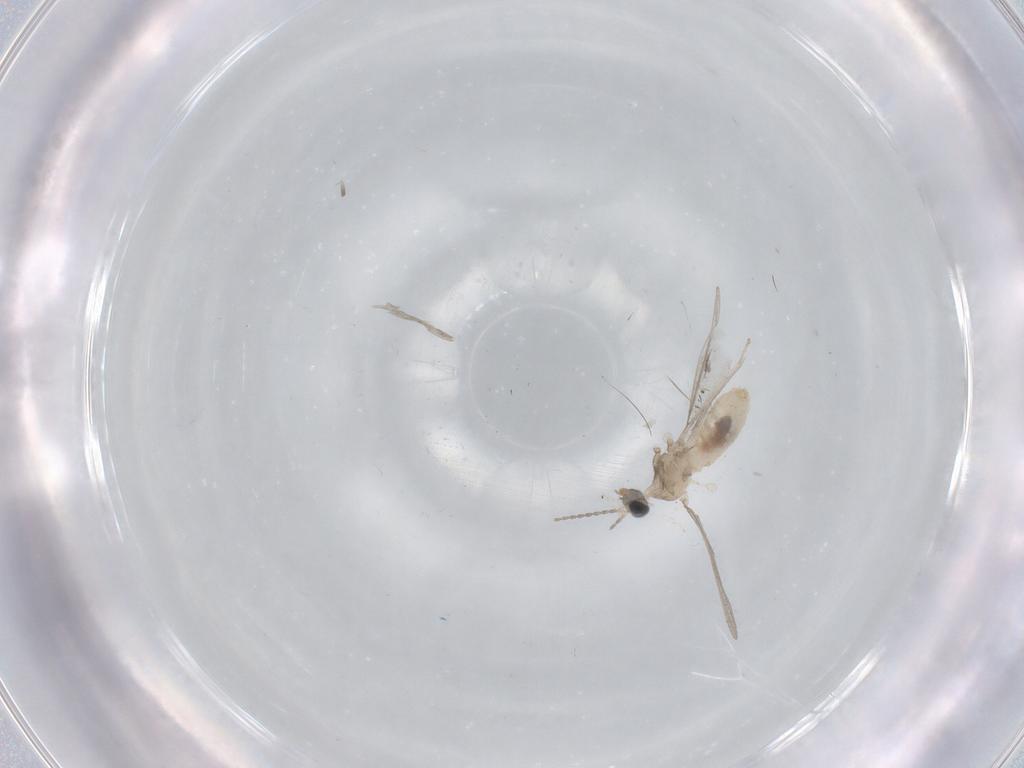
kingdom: Animalia
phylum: Arthropoda
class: Insecta
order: Diptera
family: Cecidomyiidae
